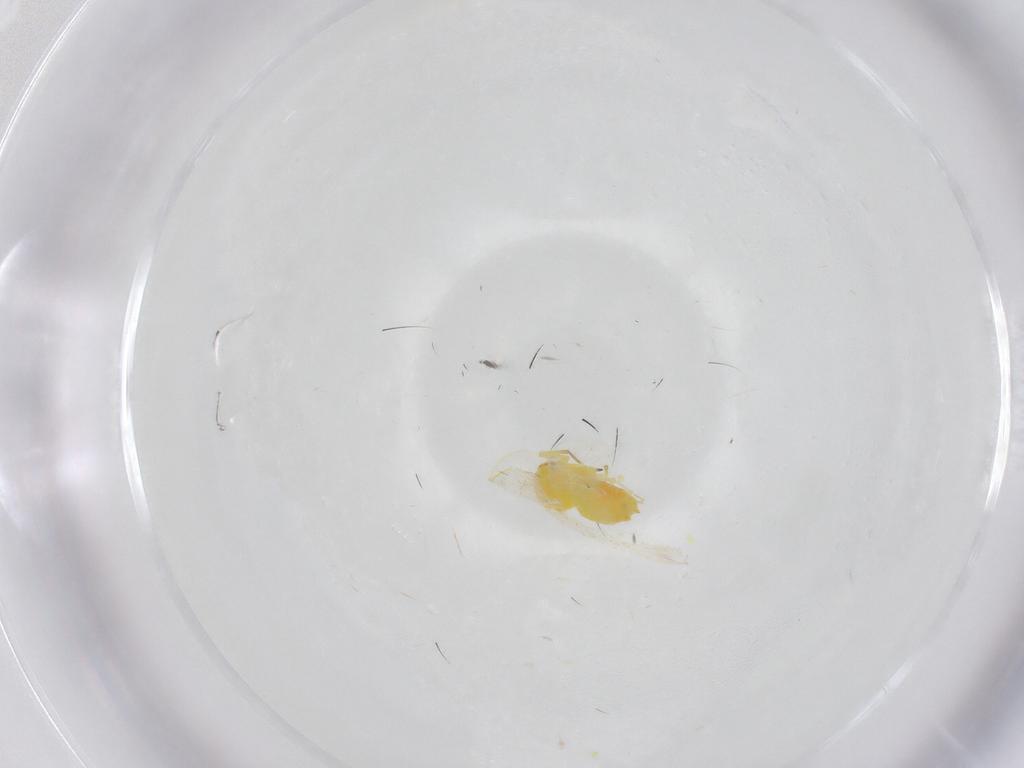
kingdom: Animalia
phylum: Arthropoda
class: Insecta
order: Hemiptera
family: Aleyrodidae
